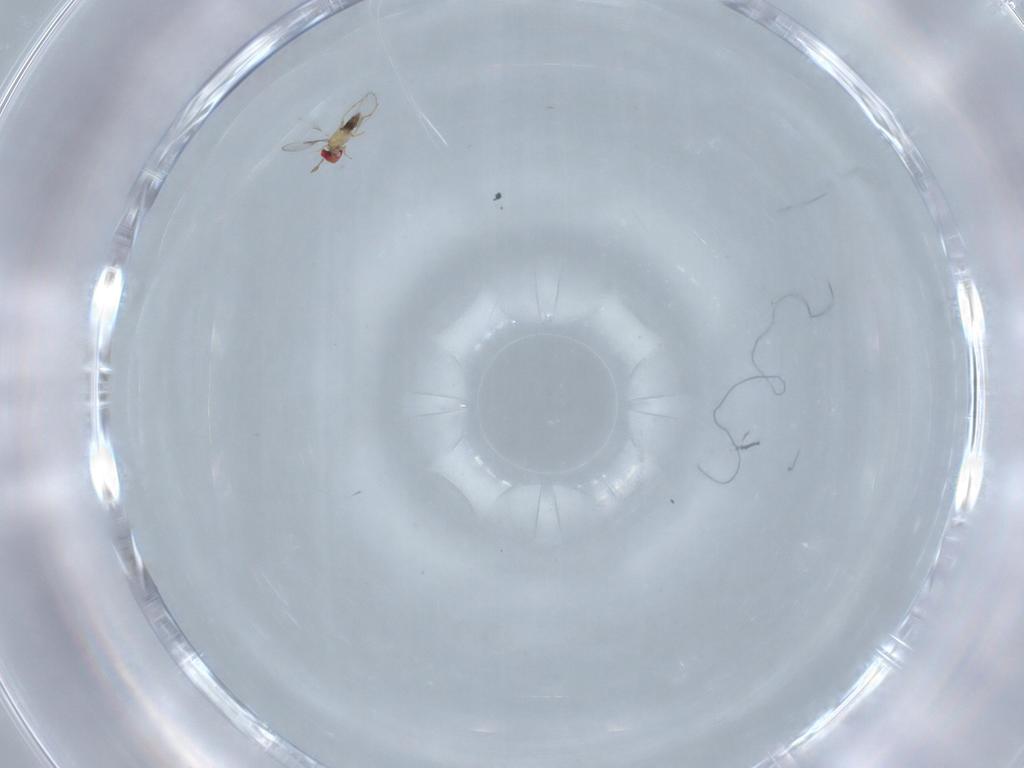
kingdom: Animalia
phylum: Arthropoda
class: Insecta
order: Hymenoptera
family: Trichogrammatidae
